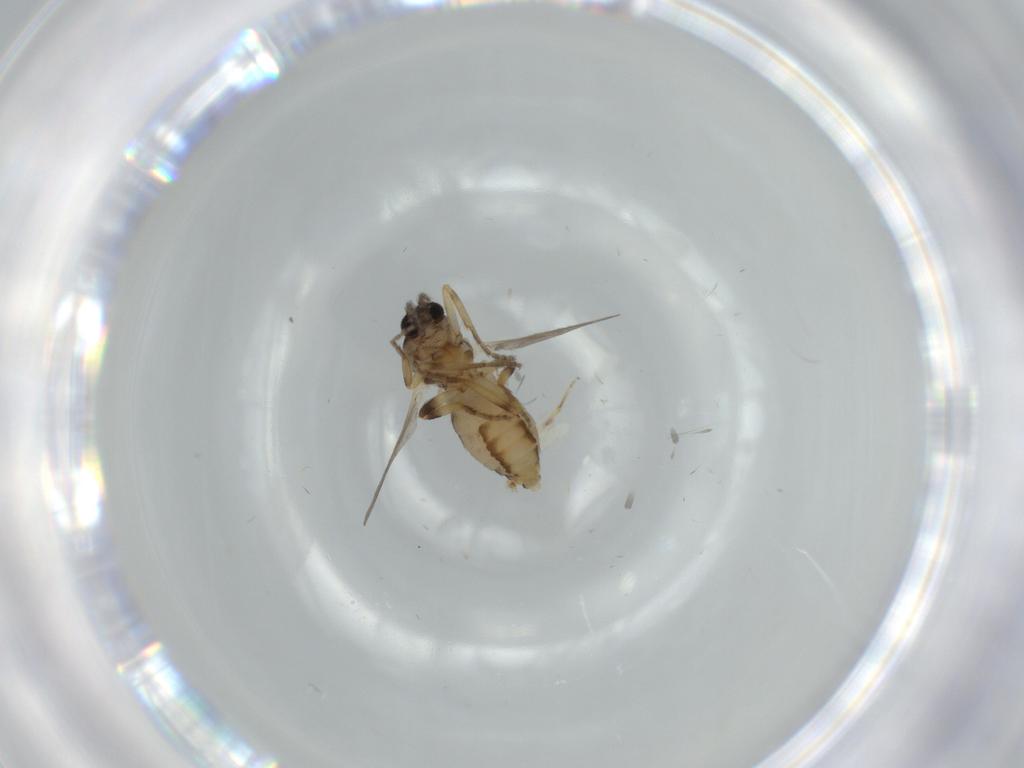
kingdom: Animalia
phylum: Arthropoda
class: Insecta
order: Diptera
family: Ceratopogonidae
